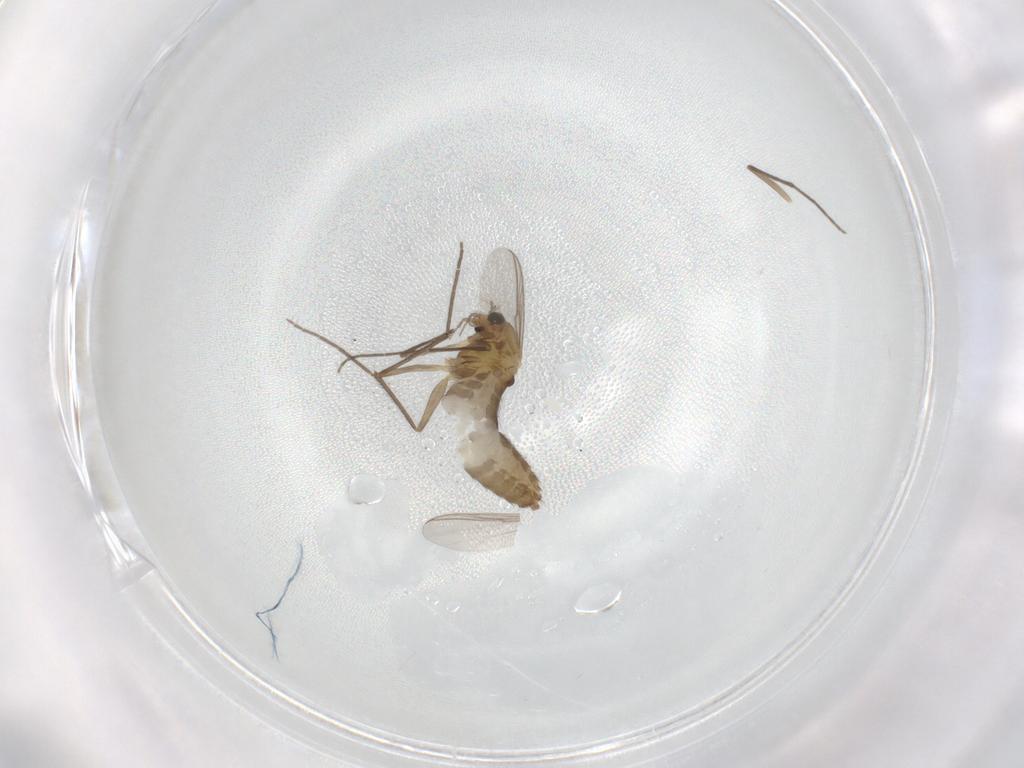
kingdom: Animalia
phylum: Arthropoda
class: Insecta
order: Diptera
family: Chironomidae
